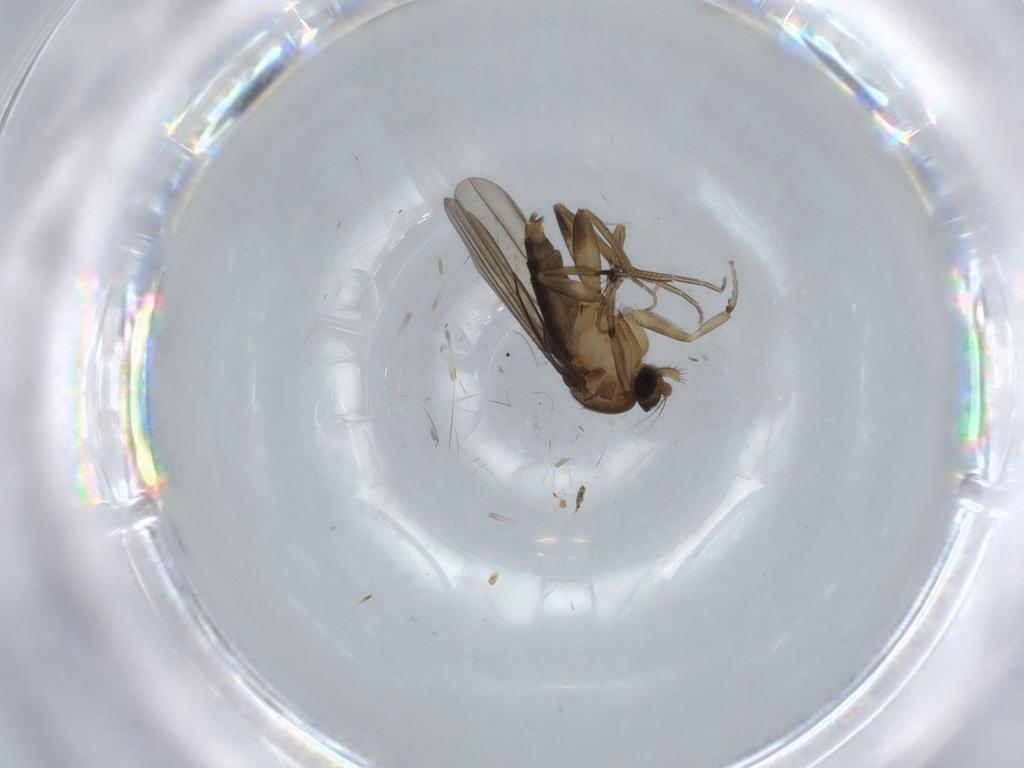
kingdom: Animalia
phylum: Arthropoda
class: Insecta
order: Diptera
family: Phoridae
